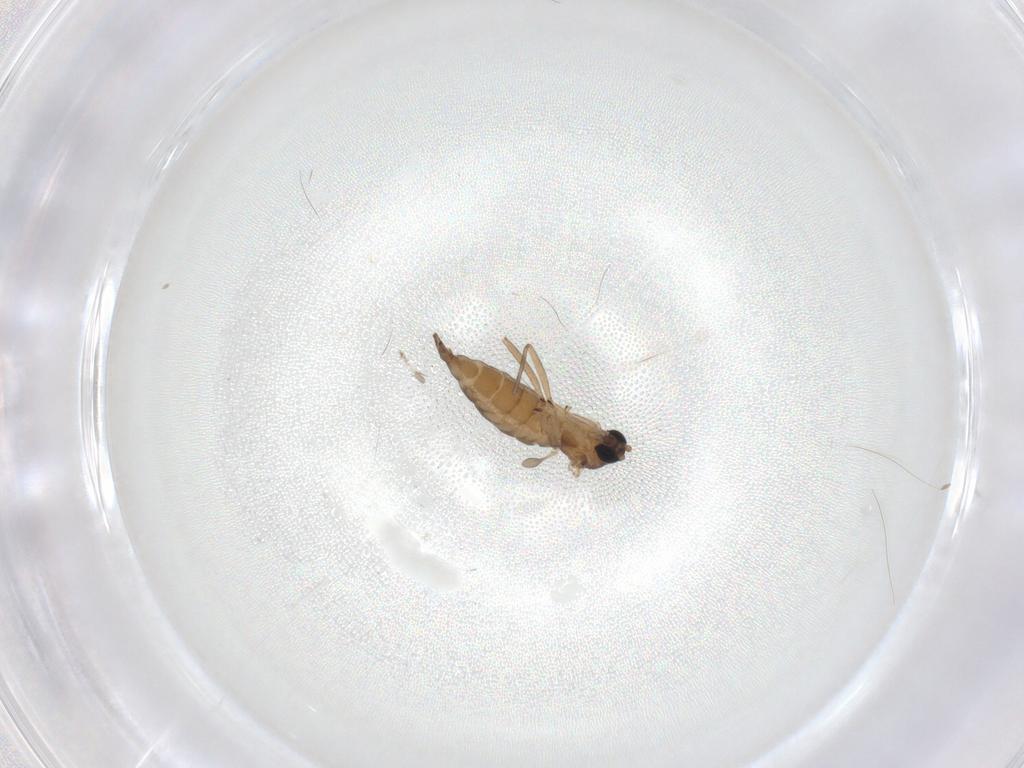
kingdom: Animalia
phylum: Arthropoda
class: Insecta
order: Diptera
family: Sciaridae
